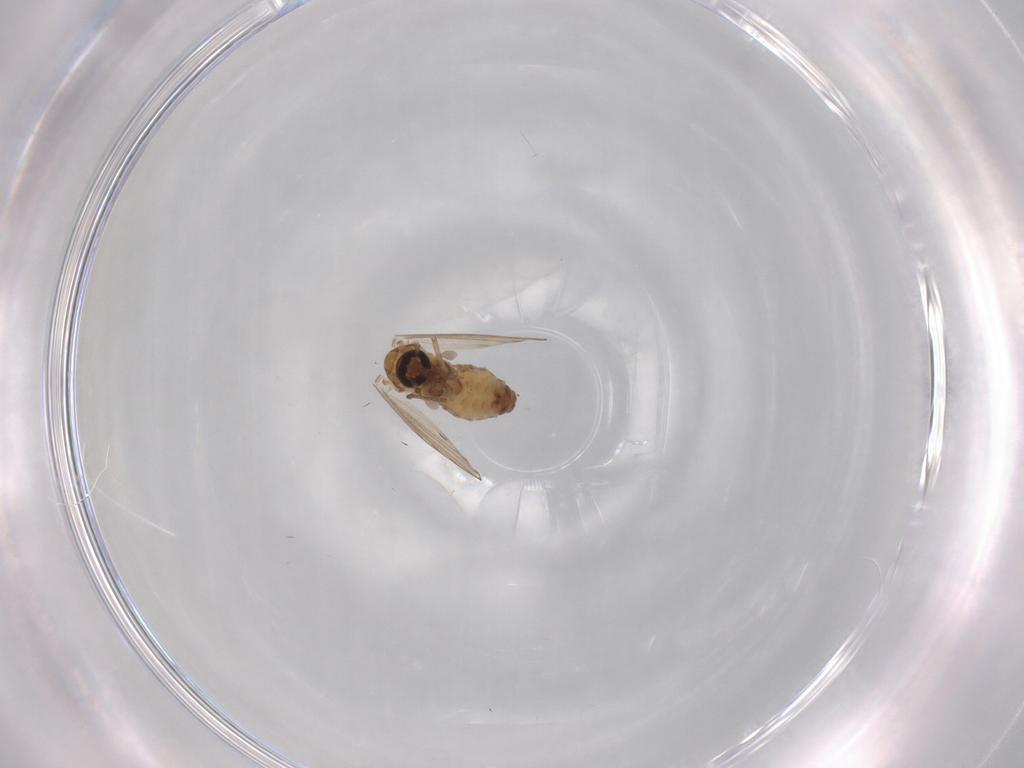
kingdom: Animalia
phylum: Arthropoda
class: Insecta
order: Diptera
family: Psychodidae
